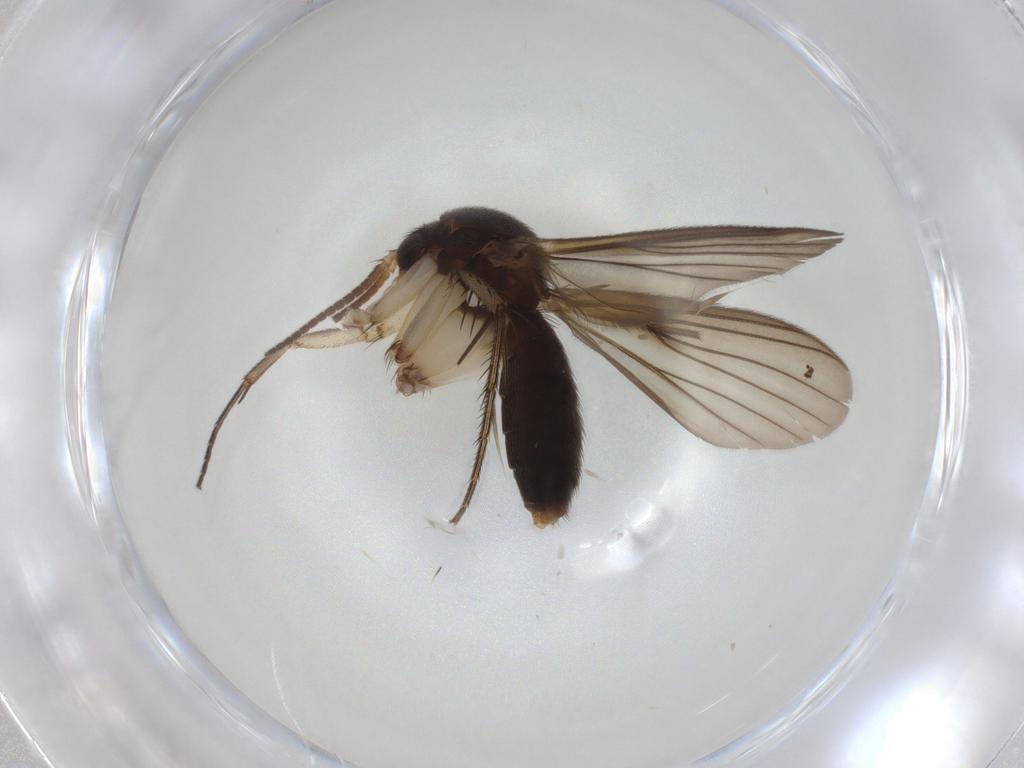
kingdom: Animalia
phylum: Arthropoda
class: Insecta
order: Diptera
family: Mycetophilidae
